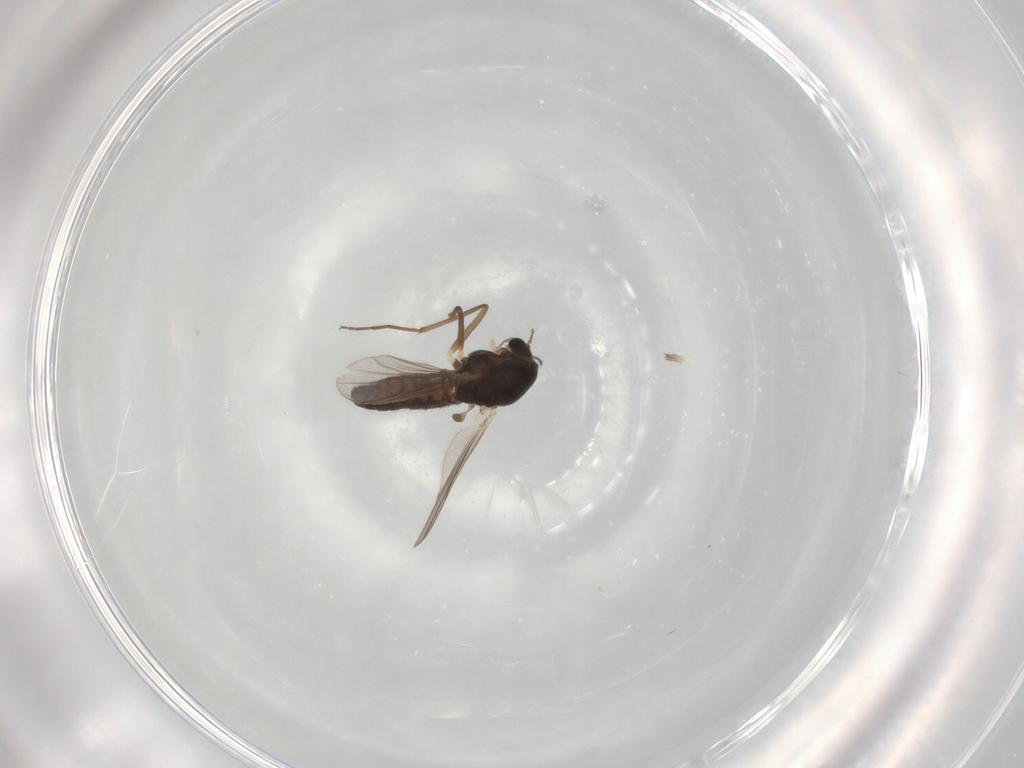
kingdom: Animalia
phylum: Arthropoda
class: Insecta
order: Diptera
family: Chironomidae
